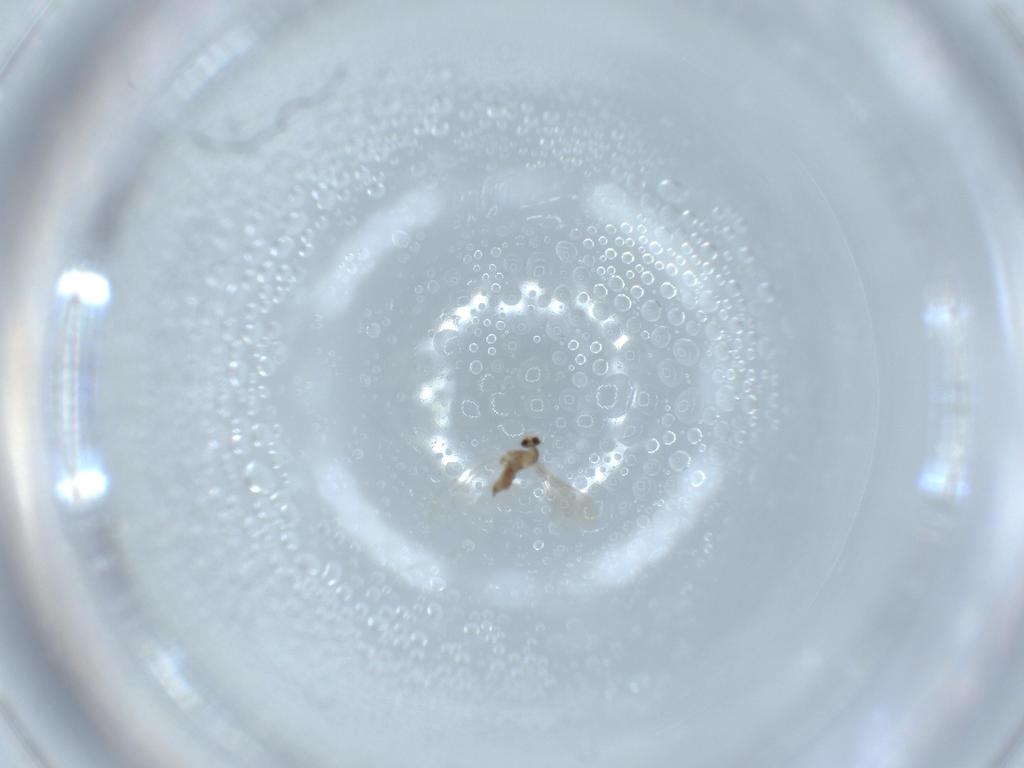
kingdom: Animalia
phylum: Arthropoda
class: Insecta
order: Diptera
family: Cecidomyiidae
